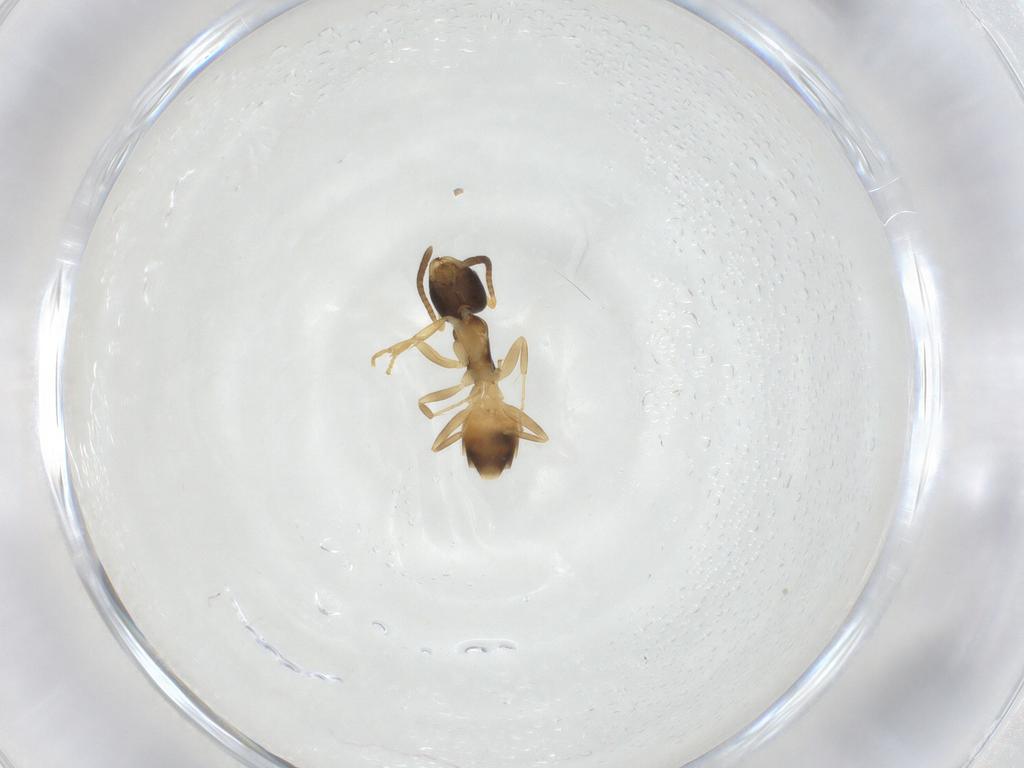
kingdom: Animalia
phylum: Arthropoda
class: Insecta
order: Hymenoptera
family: Formicidae
